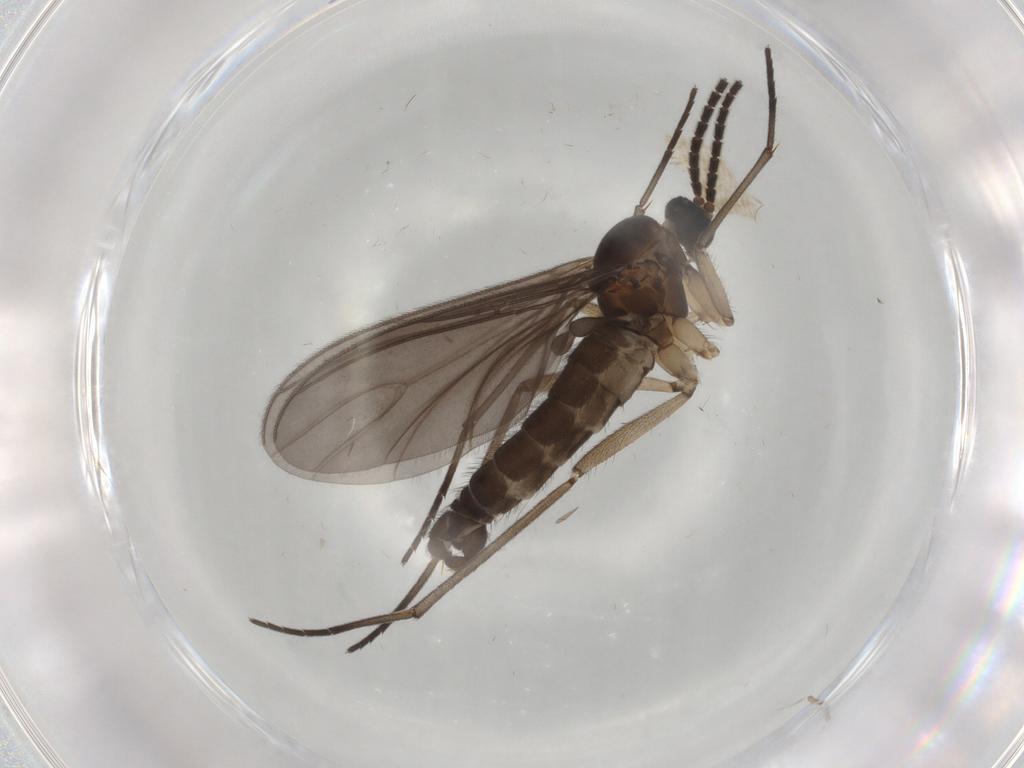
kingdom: Animalia
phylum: Arthropoda
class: Insecta
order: Diptera
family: Sciaridae
